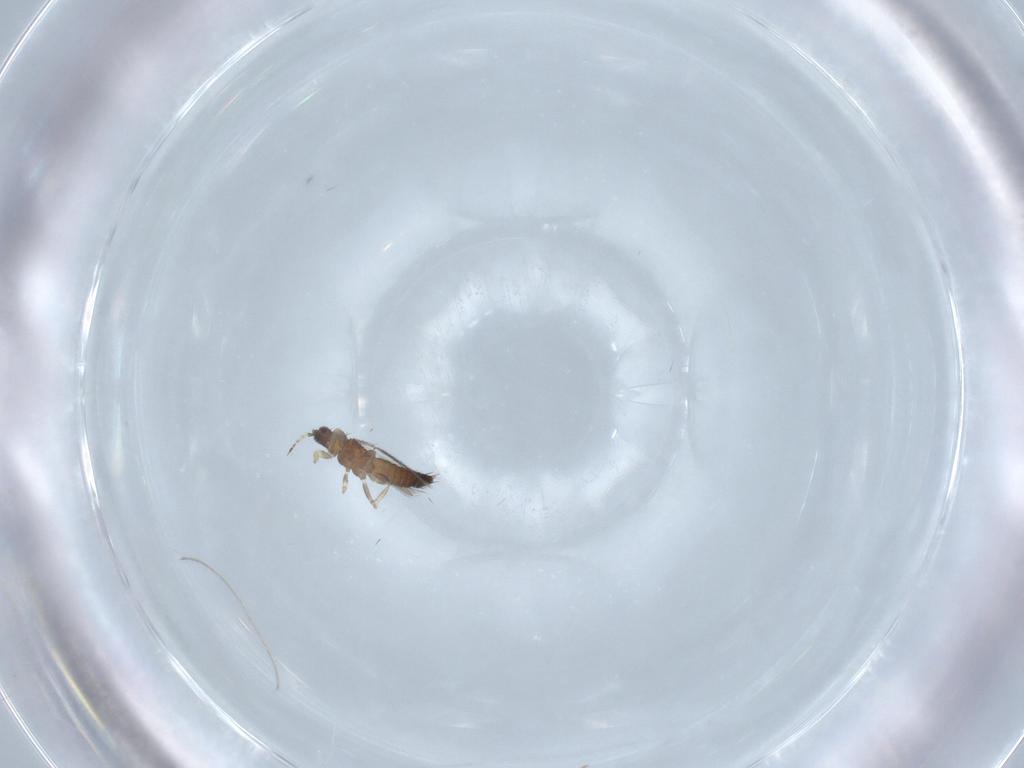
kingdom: Animalia
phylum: Arthropoda
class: Insecta
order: Thysanoptera
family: Thripidae
